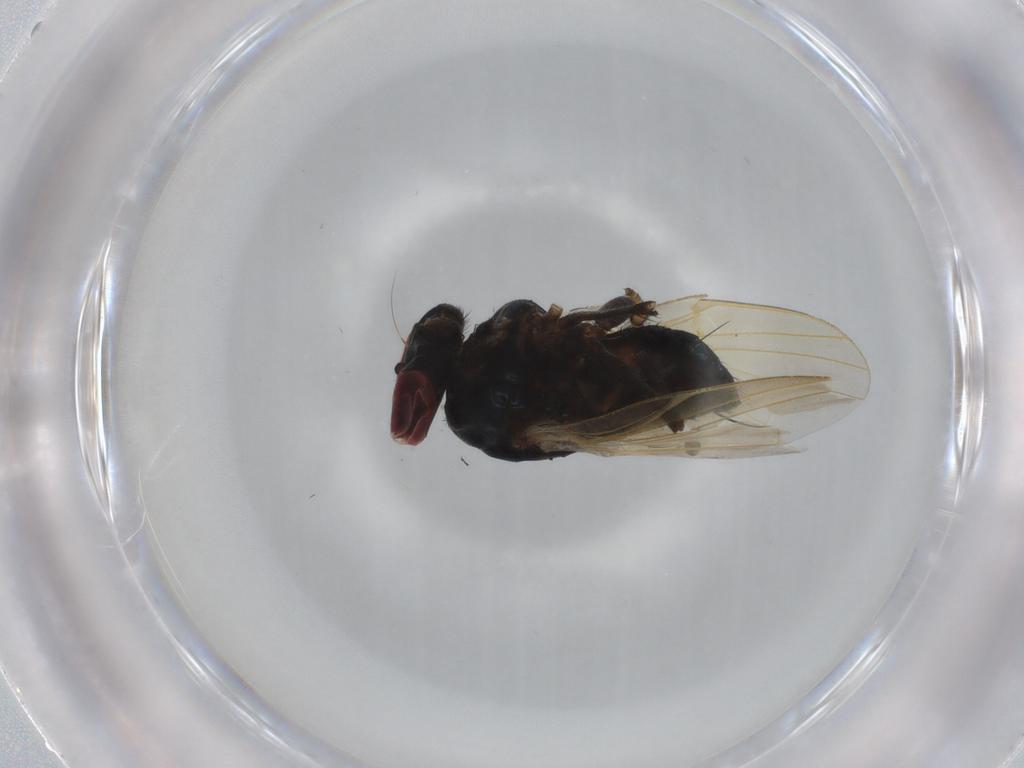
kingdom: Animalia
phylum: Arthropoda
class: Insecta
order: Diptera
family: Lonchaeidae
